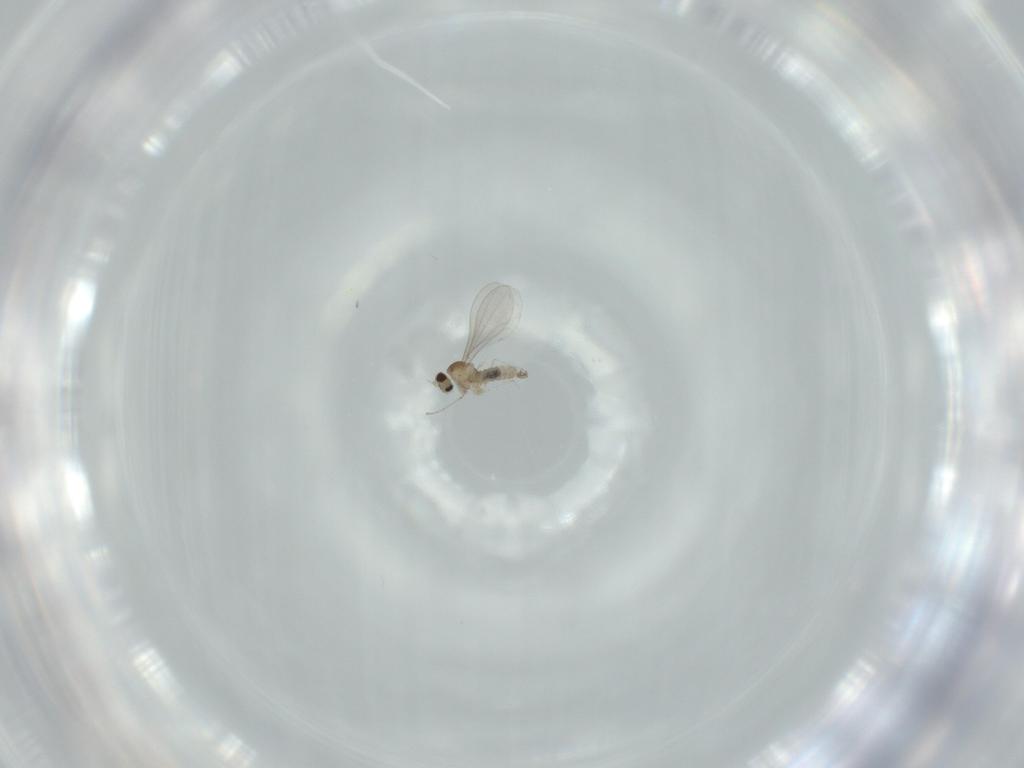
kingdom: Animalia
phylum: Arthropoda
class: Insecta
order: Diptera
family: Cecidomyiidae
